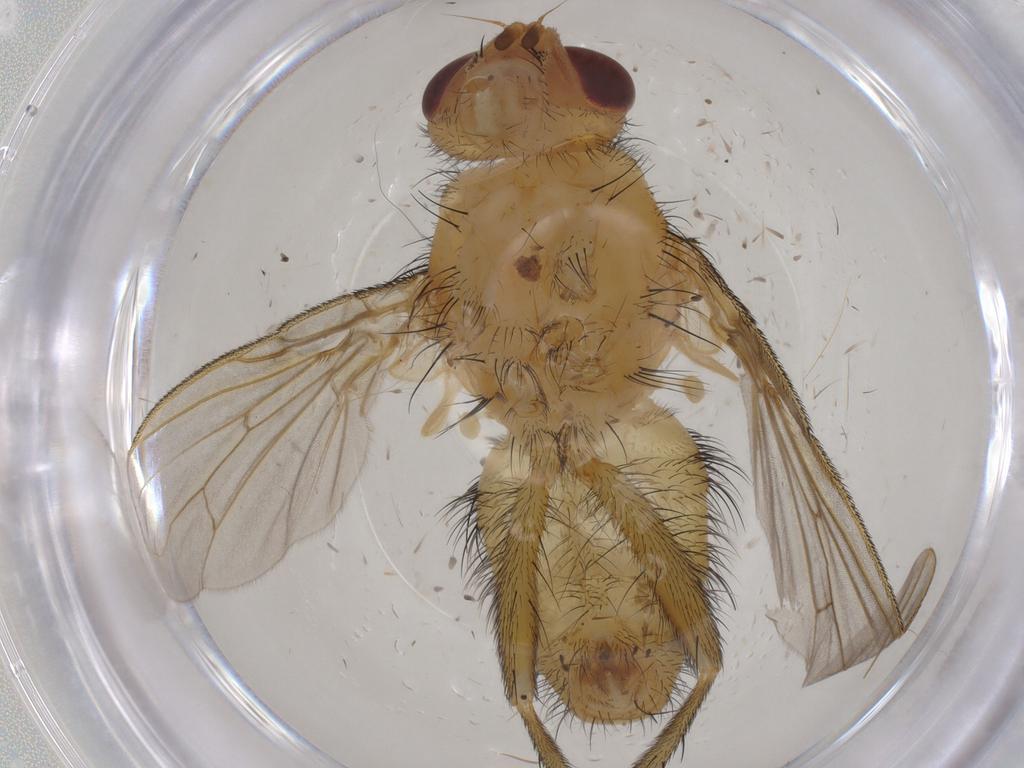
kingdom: Animalia
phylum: Arthropoda
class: Insecta
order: Diptera
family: Tachinidae
